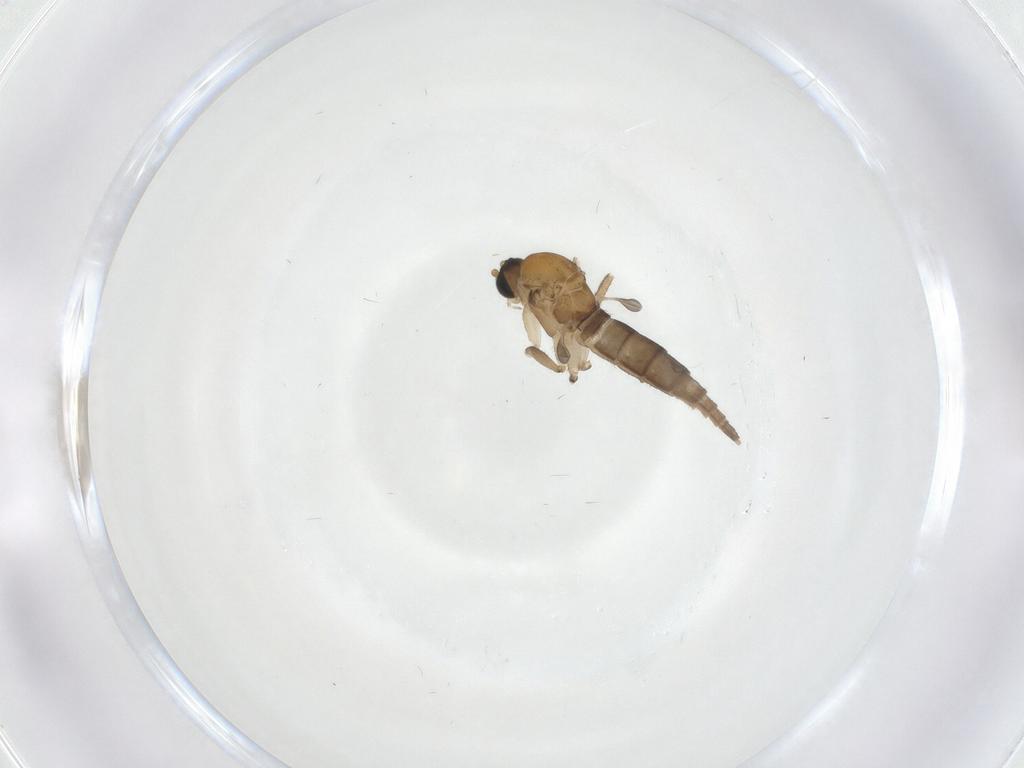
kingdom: Animalia
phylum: Arthropoda
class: Insecta
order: Diptera
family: Sciaridae
